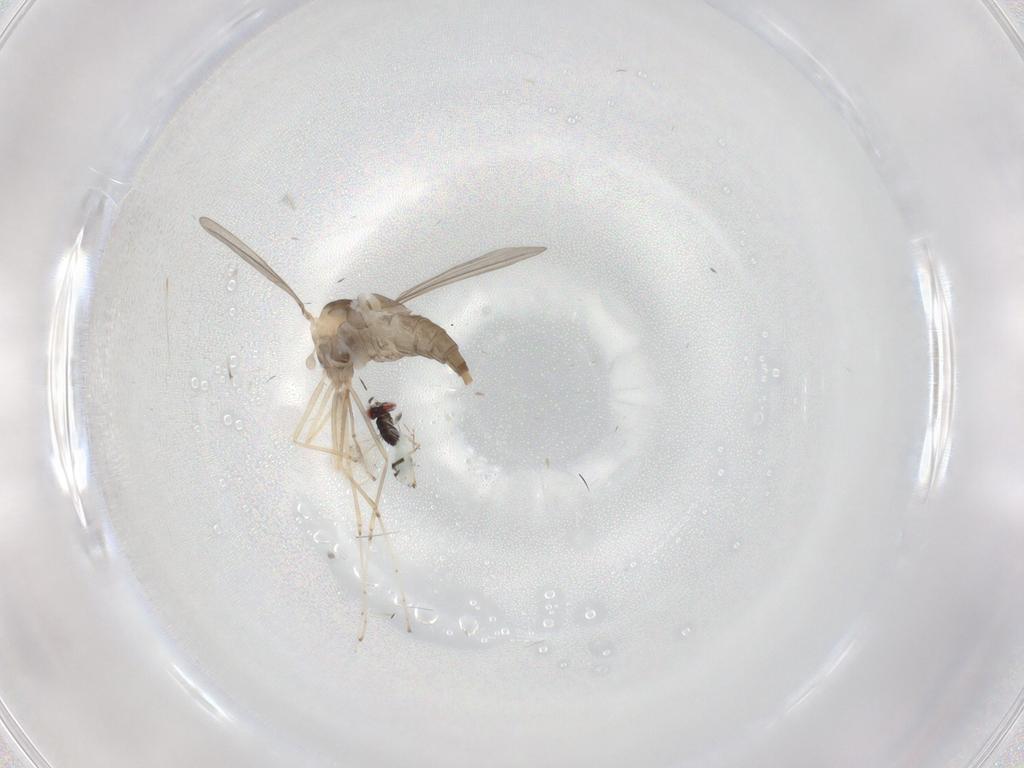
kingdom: Animalia
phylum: Arthropoda
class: Insecta
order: Diptera
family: Cecidomyiidae
